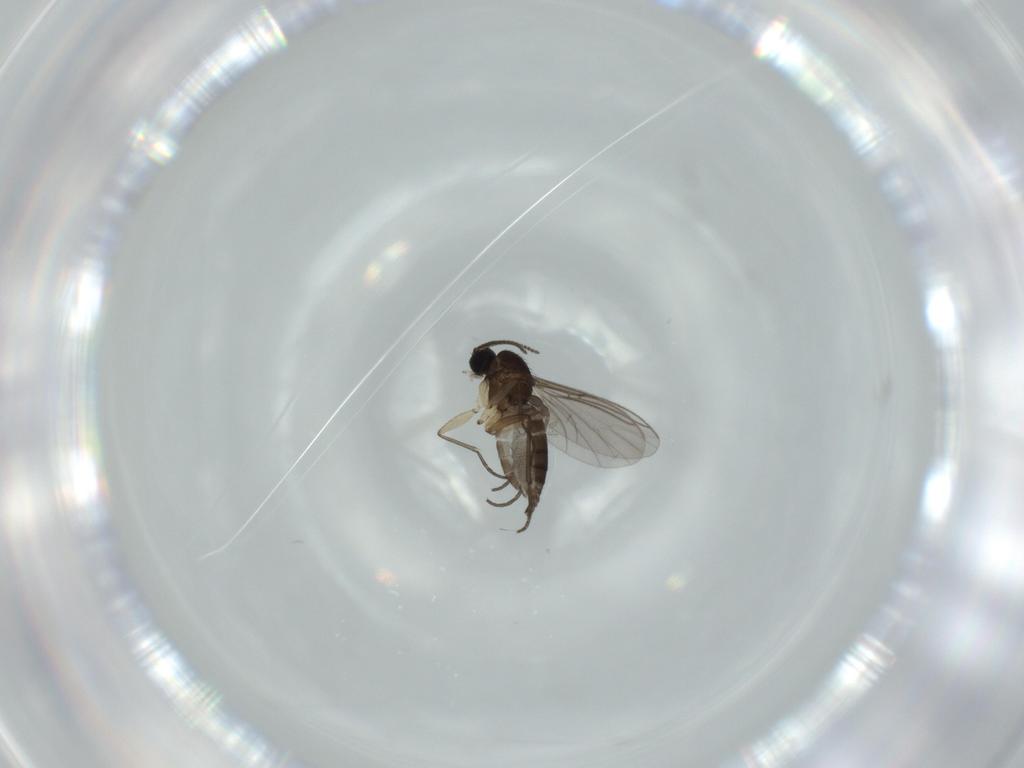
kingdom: Animalia
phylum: Arthropoda
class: Insecta
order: Diptera
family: Sciaridae
